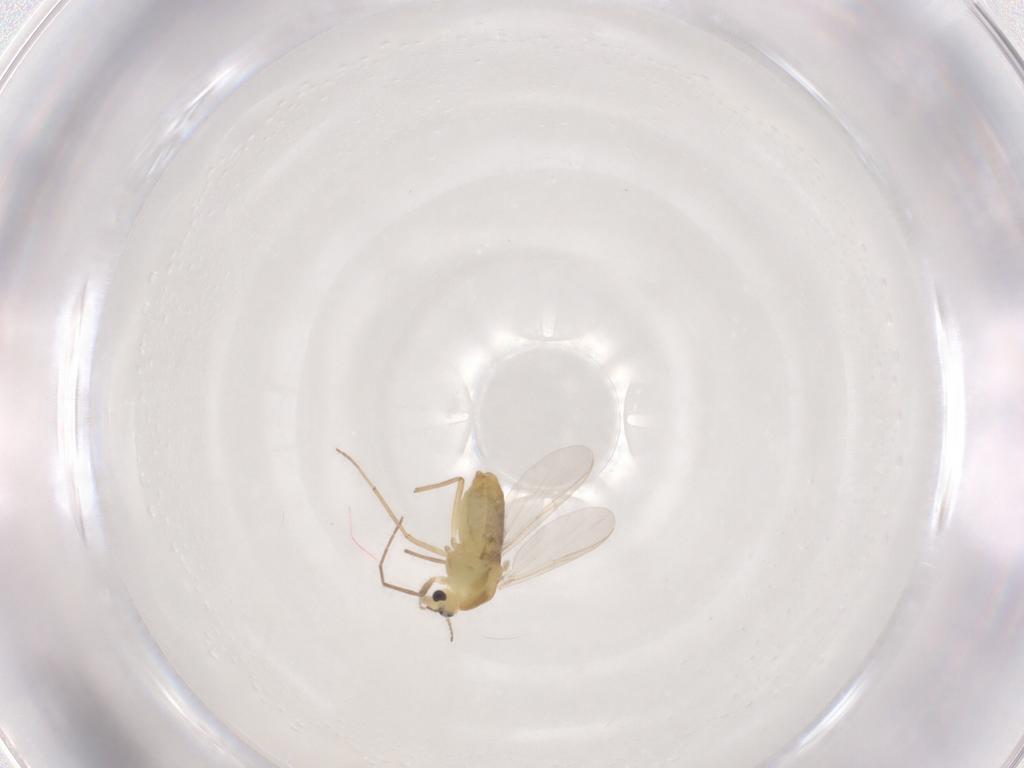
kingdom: Animalia
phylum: Arthropoda
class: Insecta
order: Diptera
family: Chironomidae
